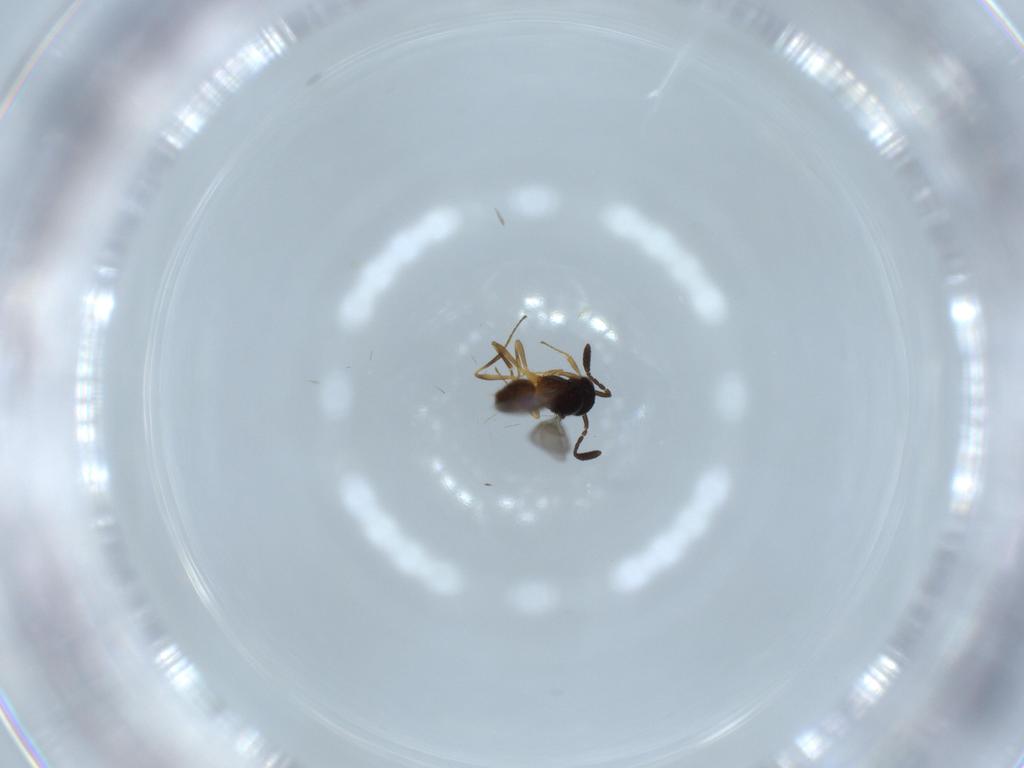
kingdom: Animalia
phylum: Arthropoda
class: Insecta
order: Hymenoptera
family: Scelionidae
